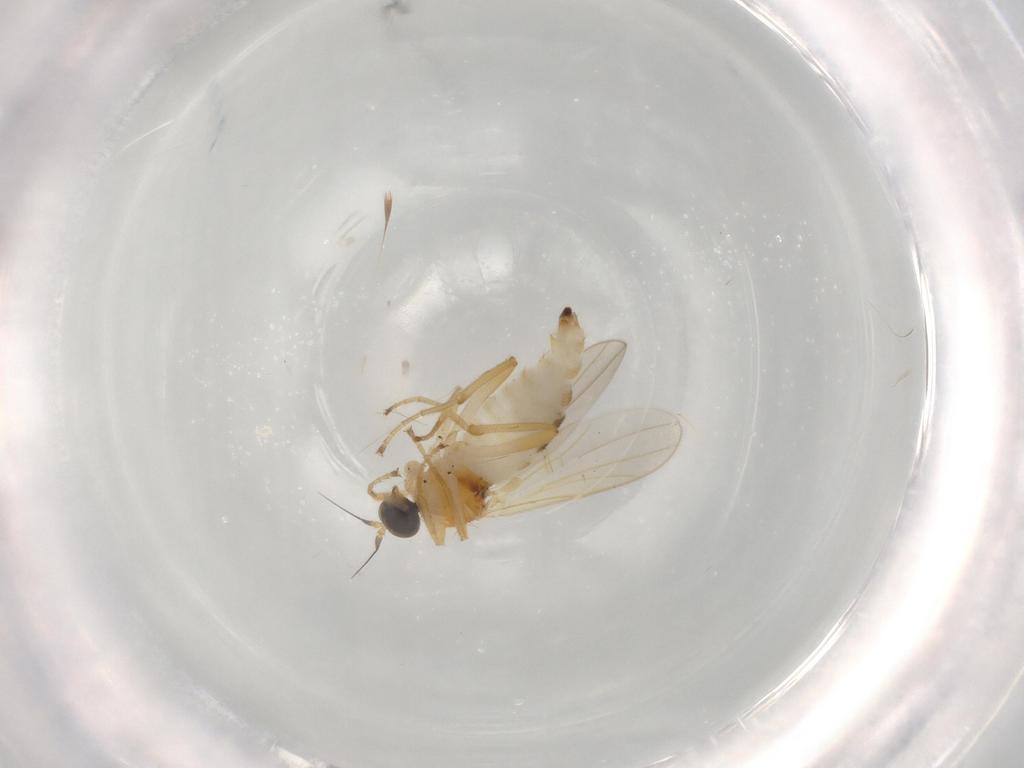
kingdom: Animalia
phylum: Arthropoda
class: Insecta
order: Diptera
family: Hybotidae
